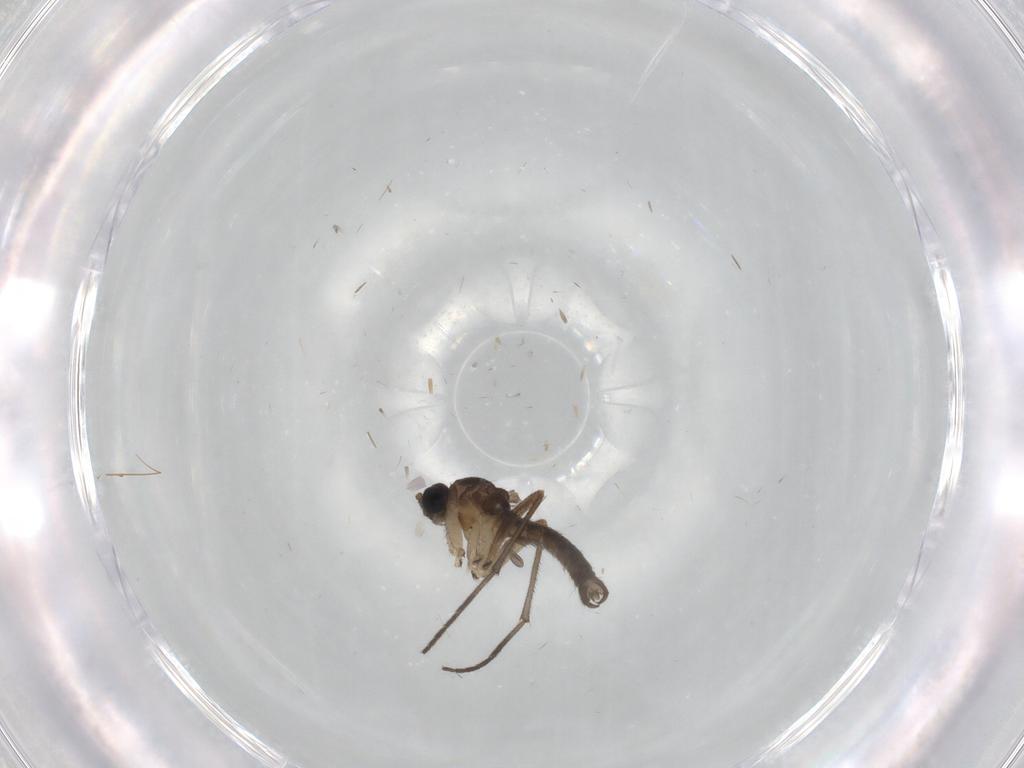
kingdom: Animalia
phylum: Arthropoda
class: Insecta
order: Diptera
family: Sciaridae
